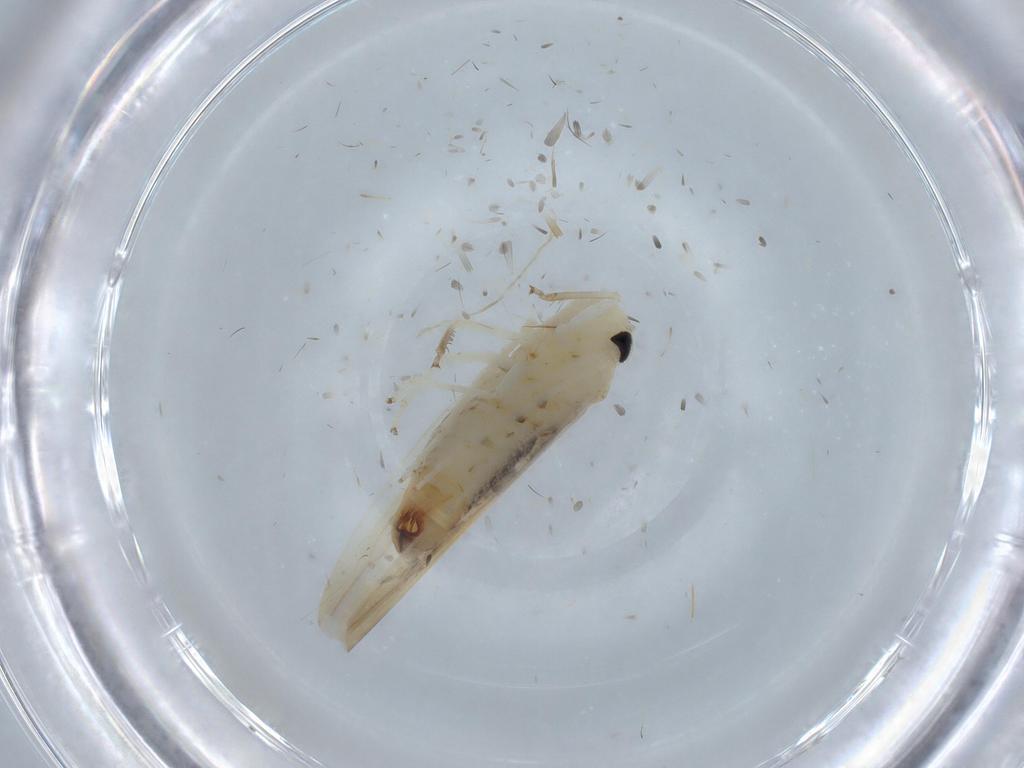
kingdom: Animalia
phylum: Arthropoda
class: Insecta
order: Hemiptera
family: Cicadellidae
